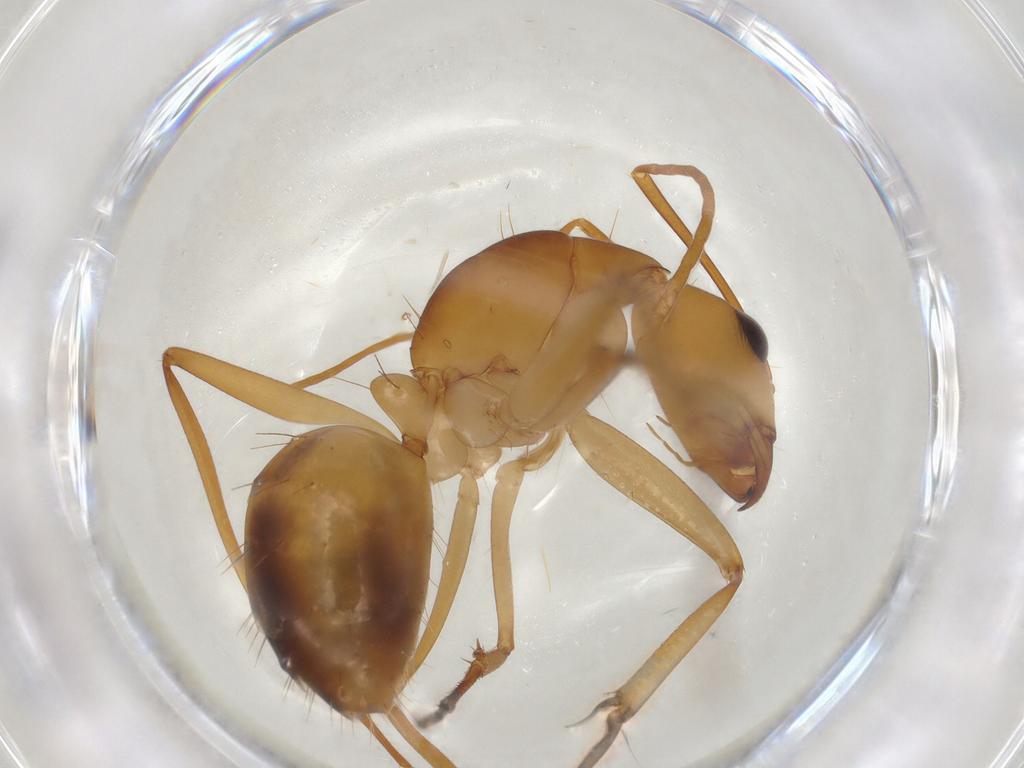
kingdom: Animalia
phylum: Arthropoda
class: Insecta
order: Hymenoptera
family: Formicidae
